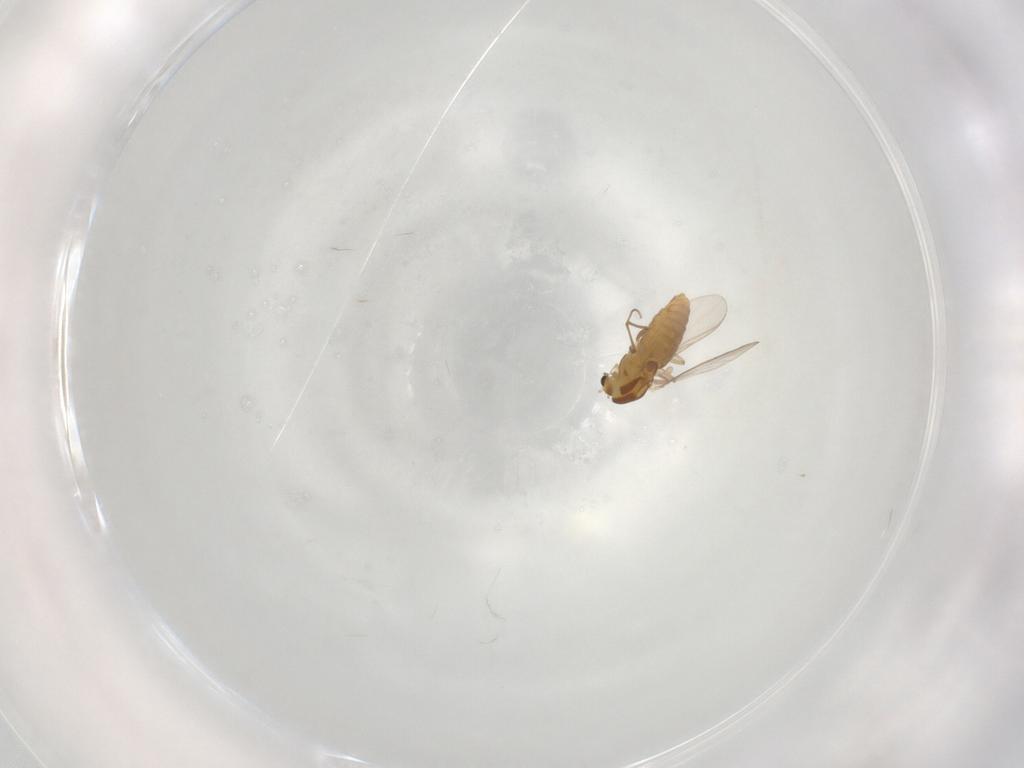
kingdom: Animalia
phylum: Arthropoda
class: Insecta
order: Diptera
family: Chironomidae
